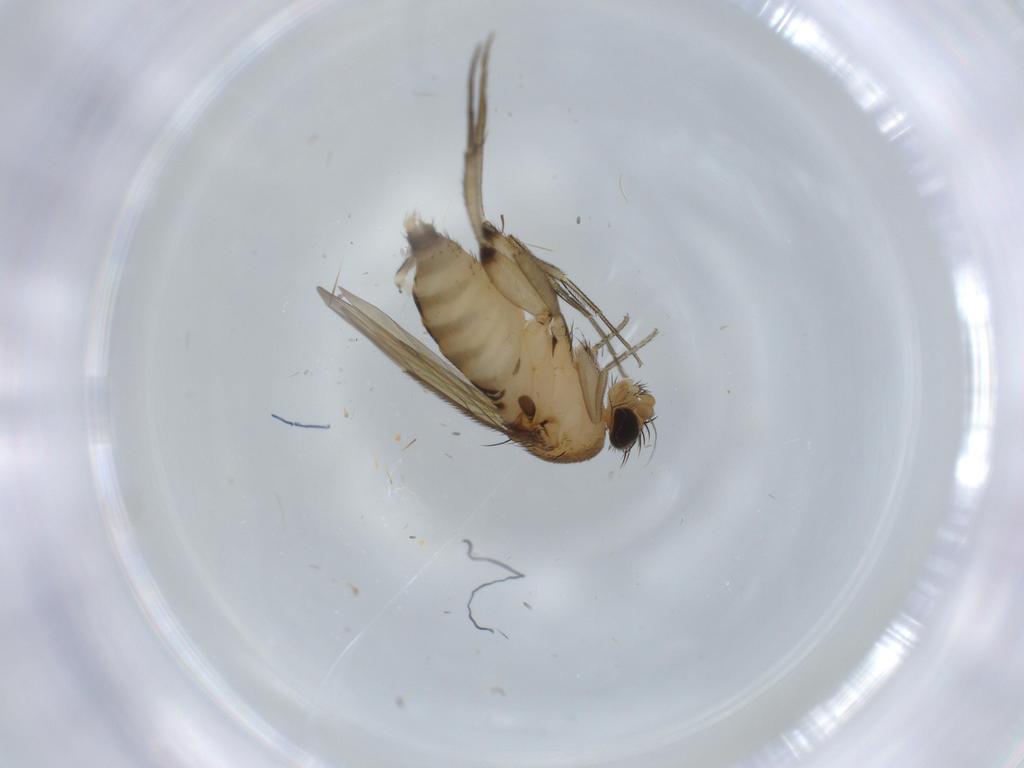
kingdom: Animalia
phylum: Arthropoda
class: Insecta
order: Diptera
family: Phoridae
